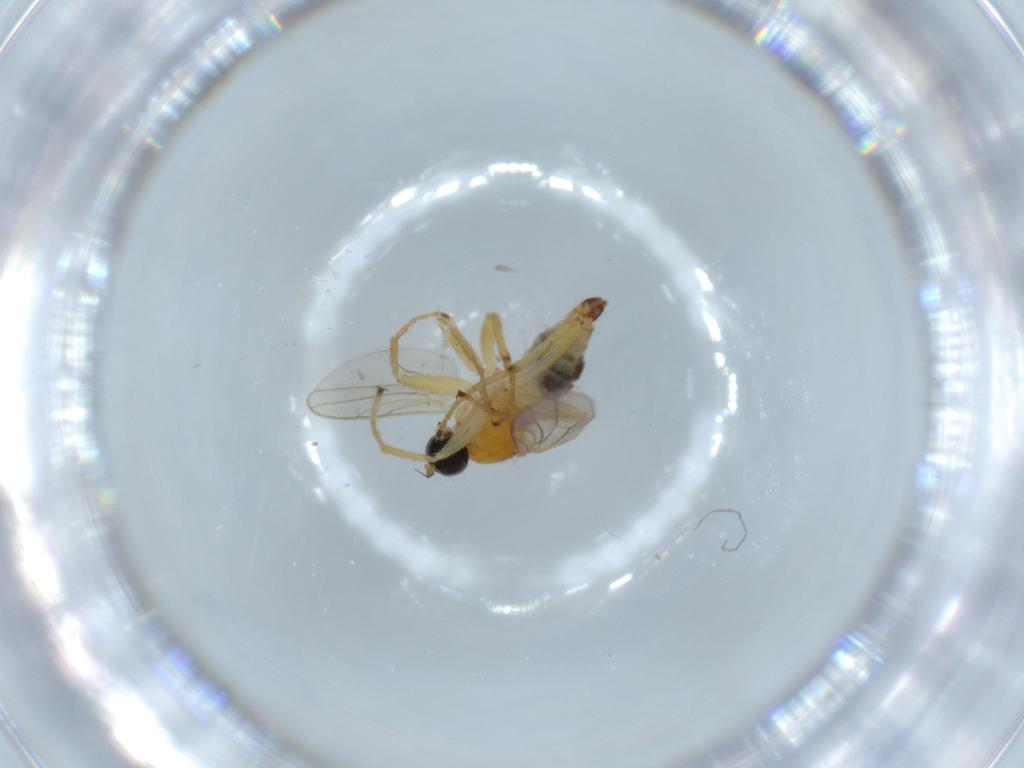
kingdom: Animalia
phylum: Arthropoda
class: Insecta
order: Diptera
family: Hybotidae
